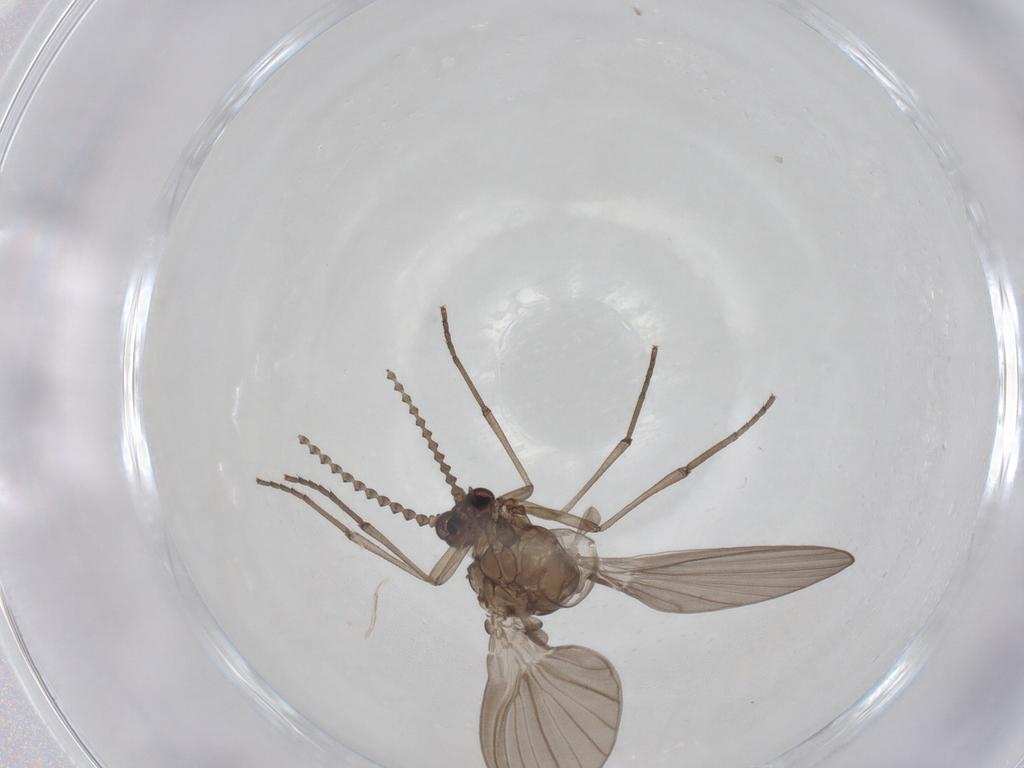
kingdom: Animalia
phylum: Arthropoda
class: Insecta
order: Diptera
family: Psychodidae
